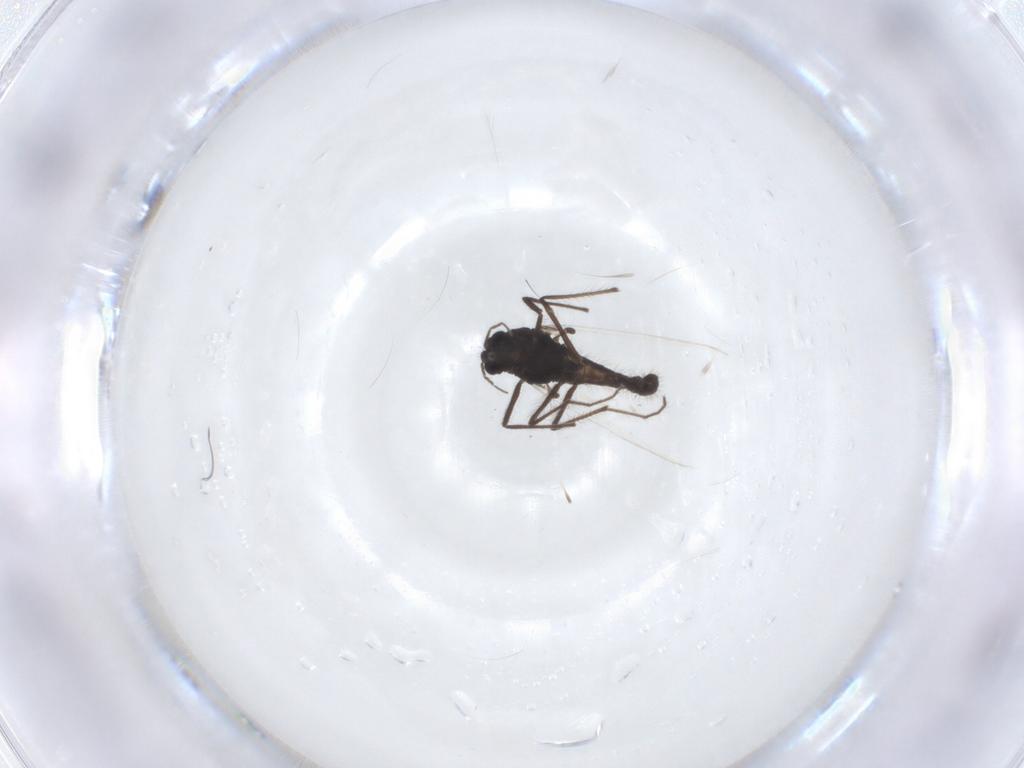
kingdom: Animalia
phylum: Arthropoda
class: Insecta
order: Diptera
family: Chironomidae
